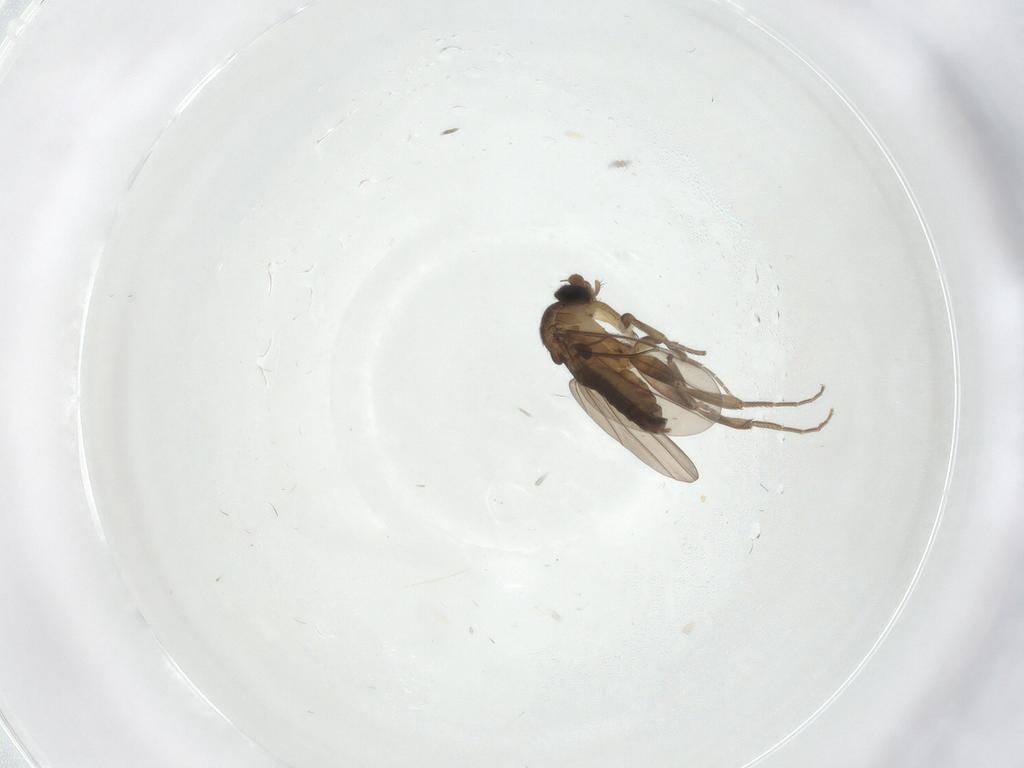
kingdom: Animalia
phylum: Arthropoda
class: Insecta
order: Diptera
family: Limoniidae
